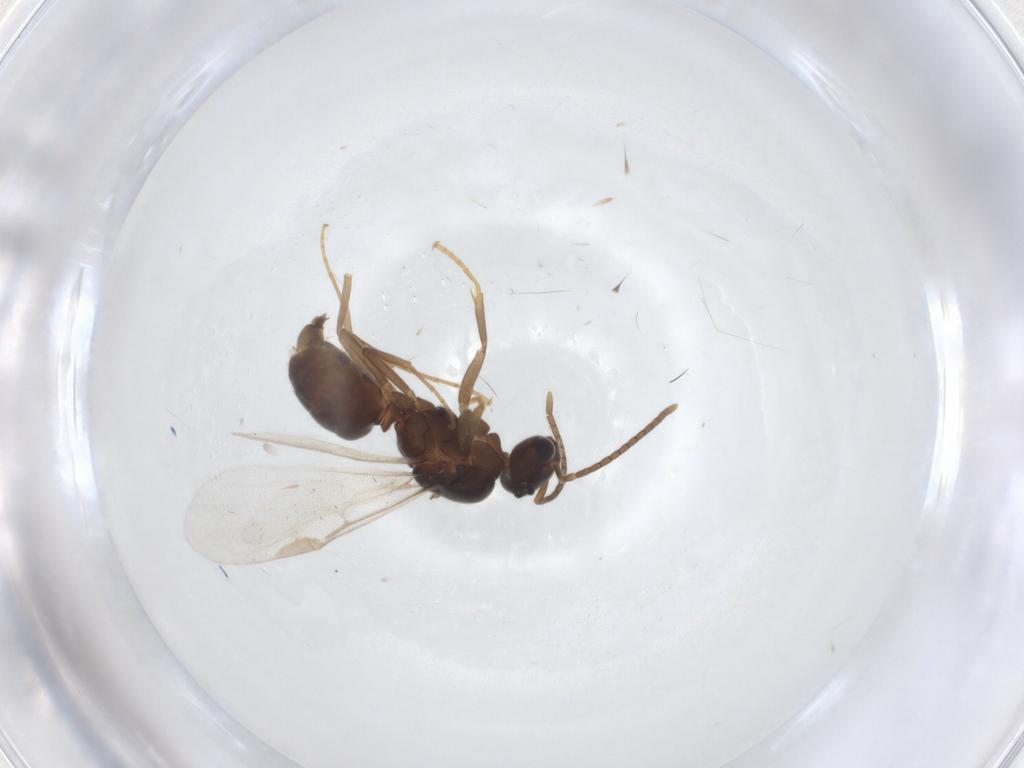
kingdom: Animalia
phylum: Arthropoda
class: Insecta
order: Hymenoptera
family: Formicidae
